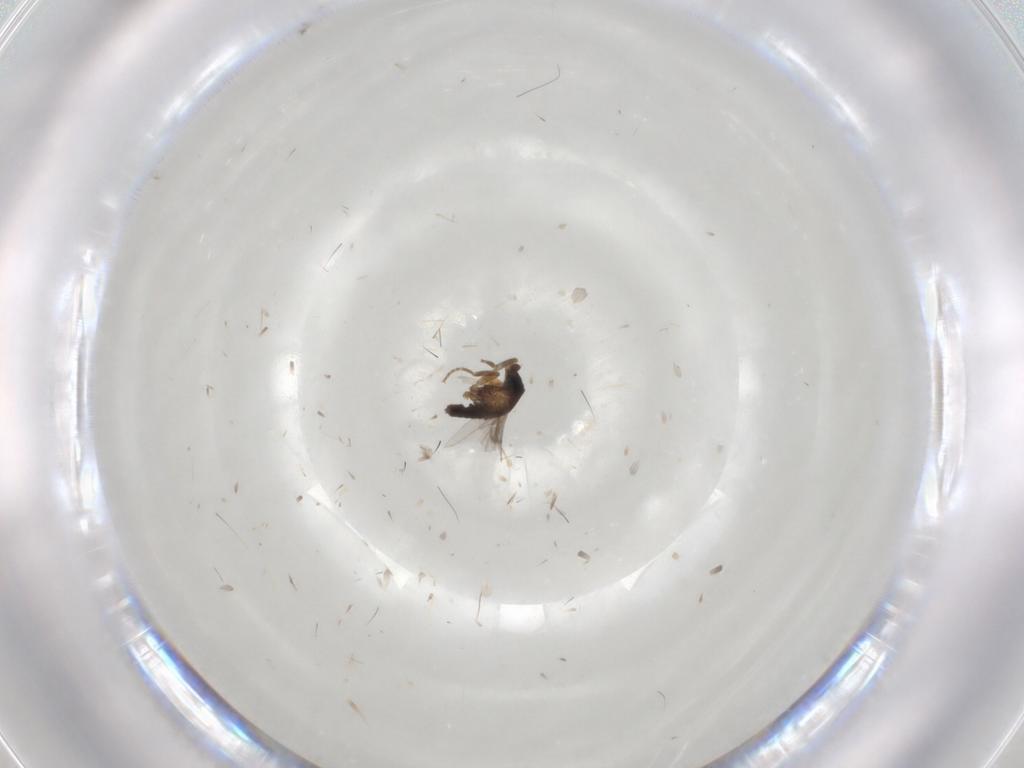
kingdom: Animalia
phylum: Arthropoda
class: Insecta
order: Diptera
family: Glossinidae
